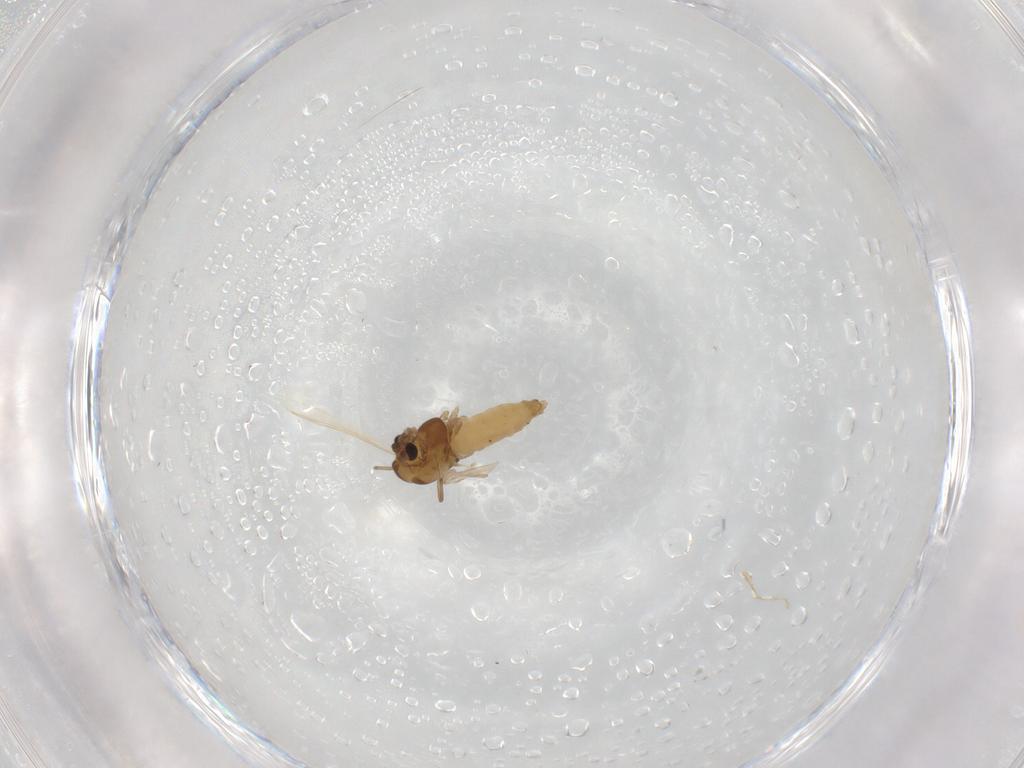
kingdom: Animalia
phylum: Arthropoda
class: Insecta
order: Diptera
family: Chironomidae
